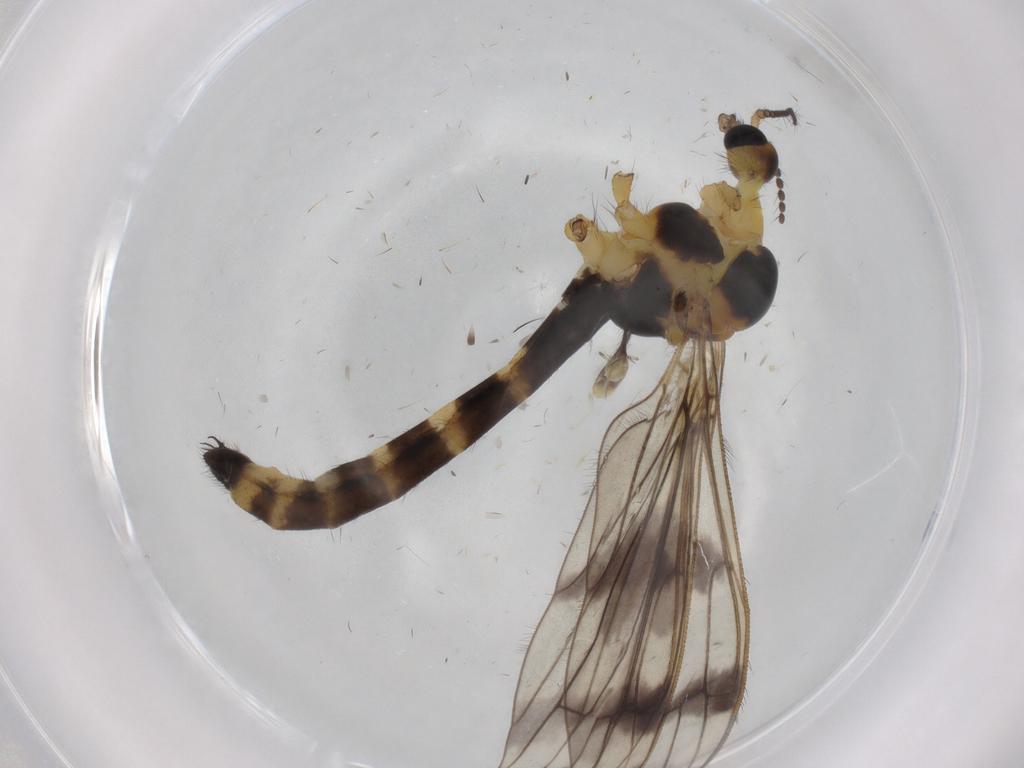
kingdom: Animalia
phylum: Arthropoda
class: Insecta
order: Diptera
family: Limoniidae
